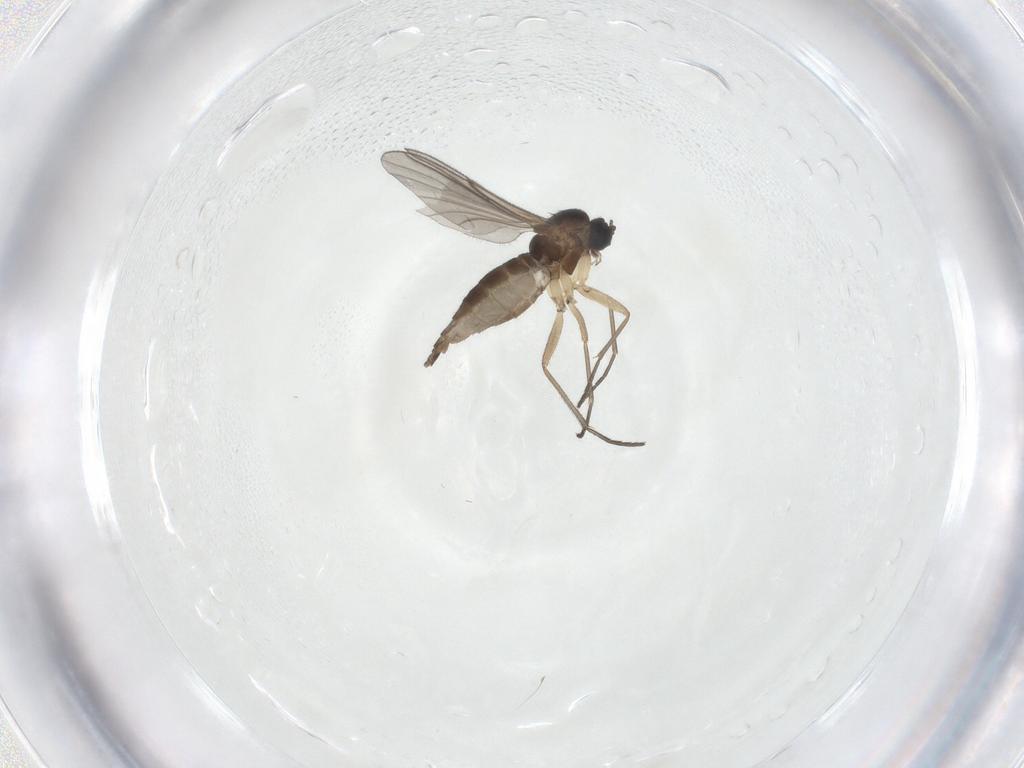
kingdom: Animalia
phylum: Arthropoda
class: Insecta
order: Diptera
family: Sciaridae
